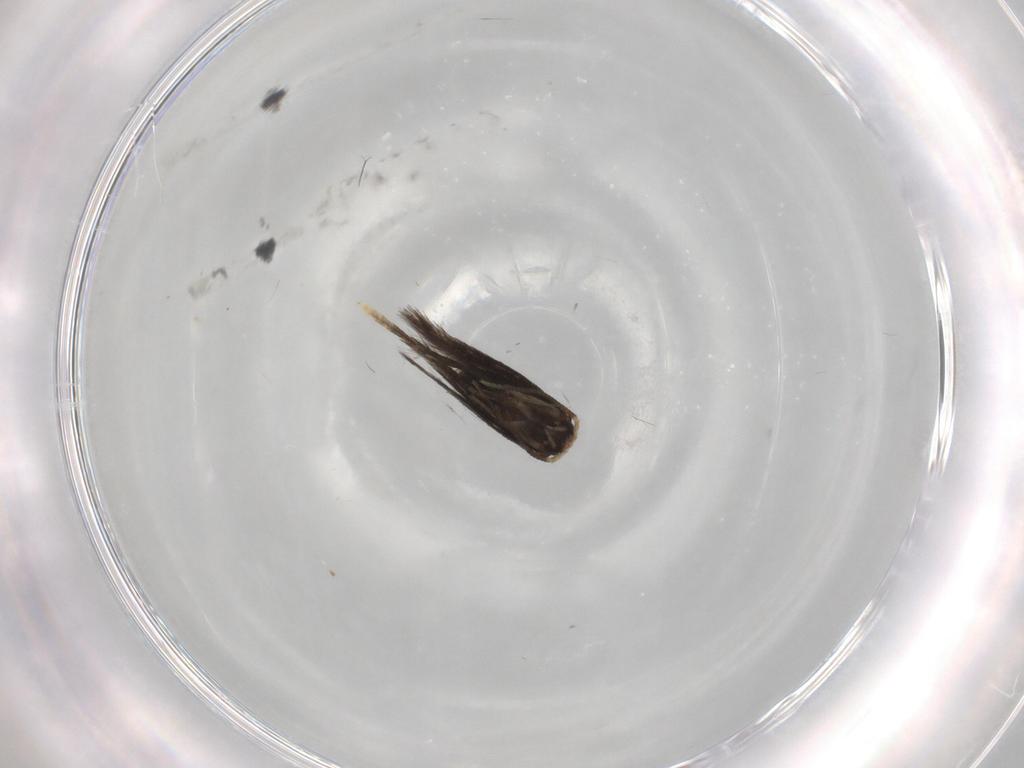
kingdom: Animalia
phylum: Arthropoda
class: Insecta
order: Lepidoptera
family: Nepticulidae
